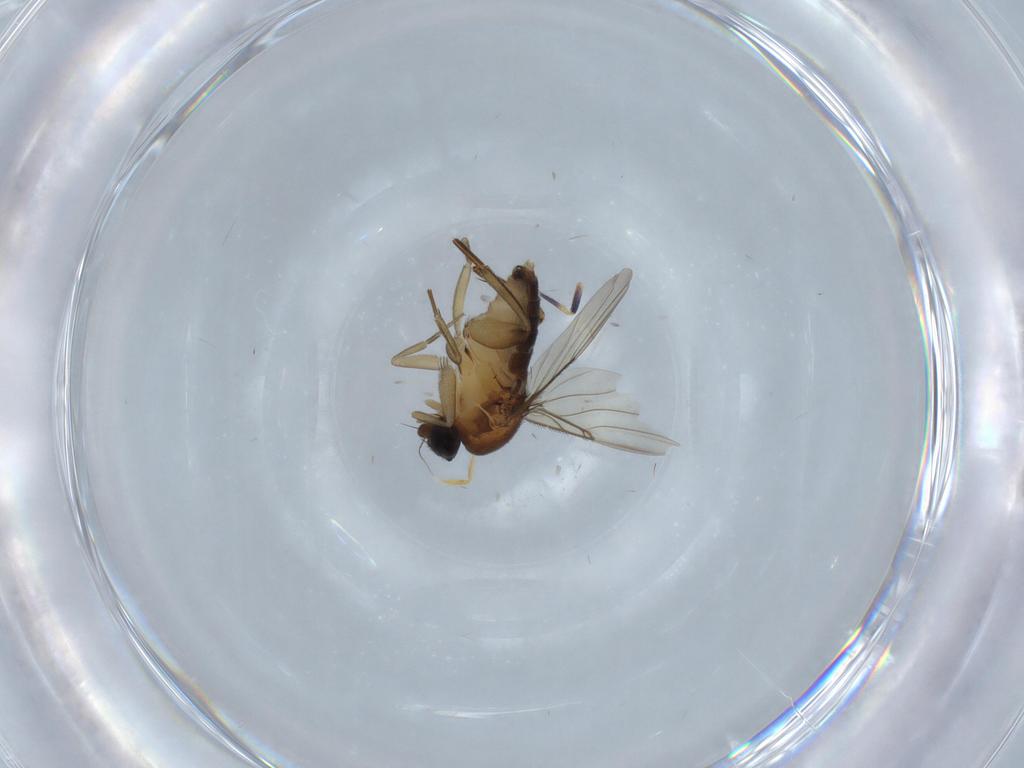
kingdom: Animalia
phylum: Arthropoda
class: Insecta
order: Diptera
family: Phoridae
